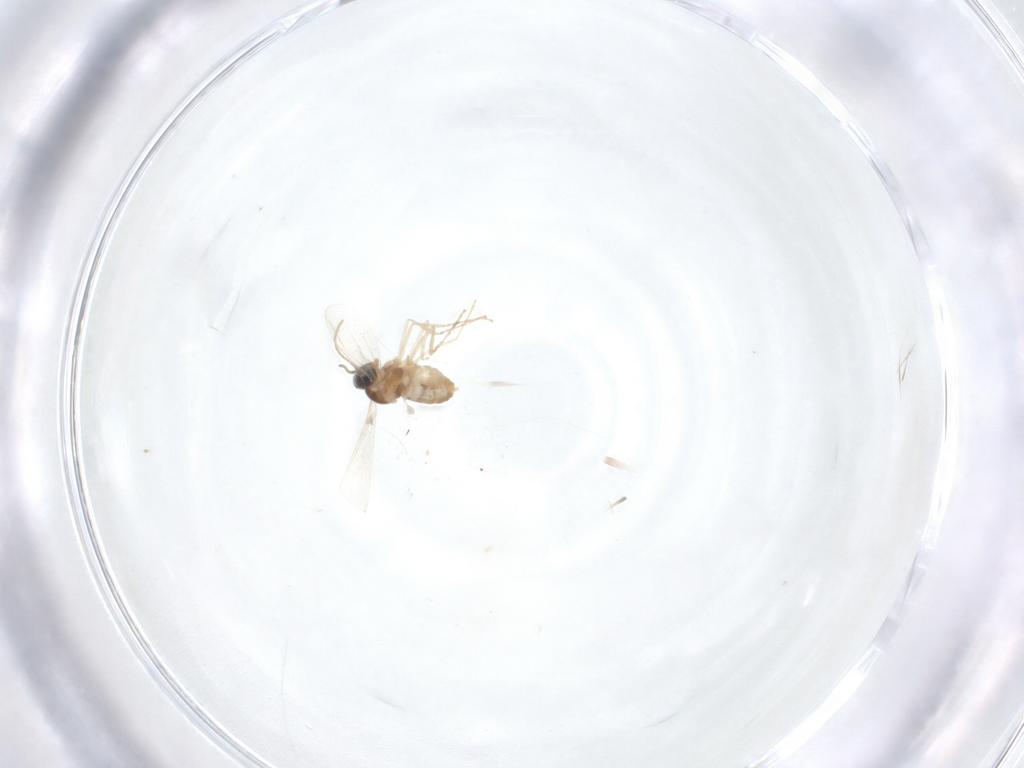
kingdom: Animalia
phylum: Arthropoda
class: Insecta
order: Diptera
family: Cecidomyiidae
